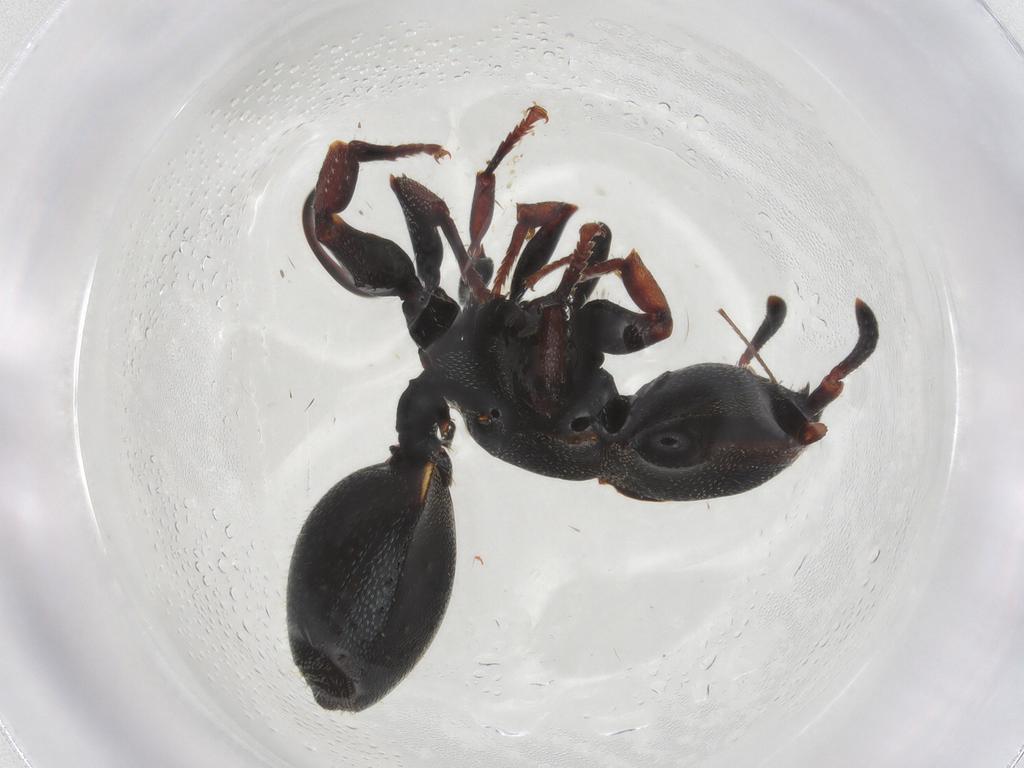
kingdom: Animalia
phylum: Arthropoda
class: Insecta
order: Hymenoptera
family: Formicidae
